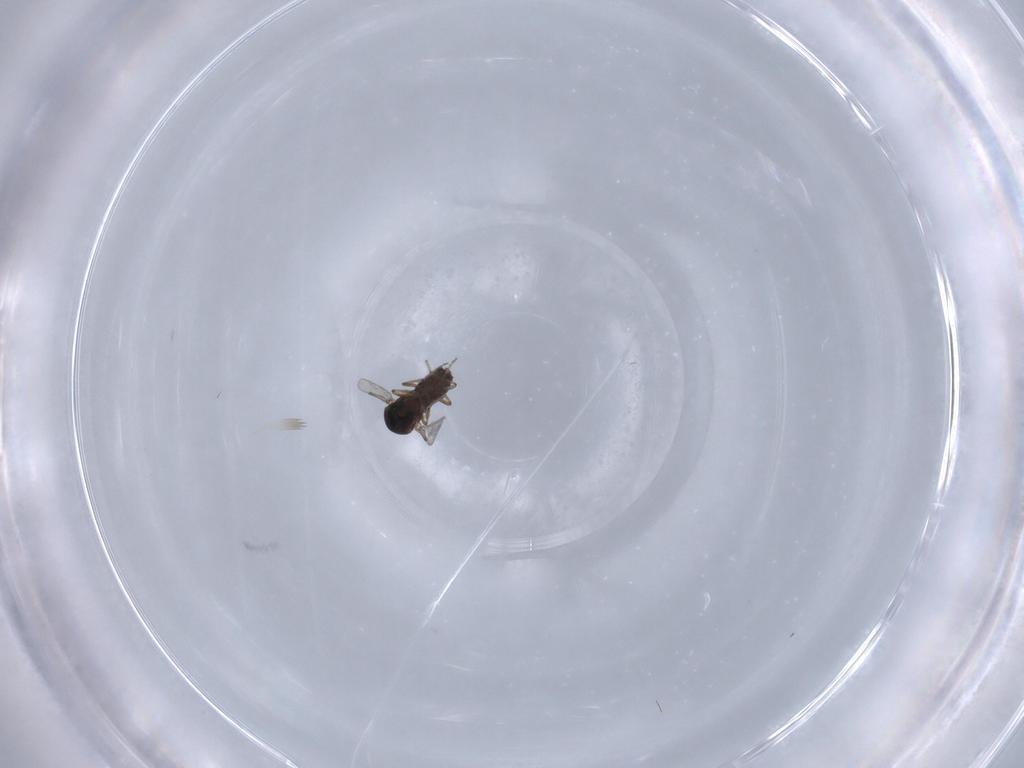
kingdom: Animalia
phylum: Arthropoda
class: Insecta
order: Diptera
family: Ceratopogonidae
